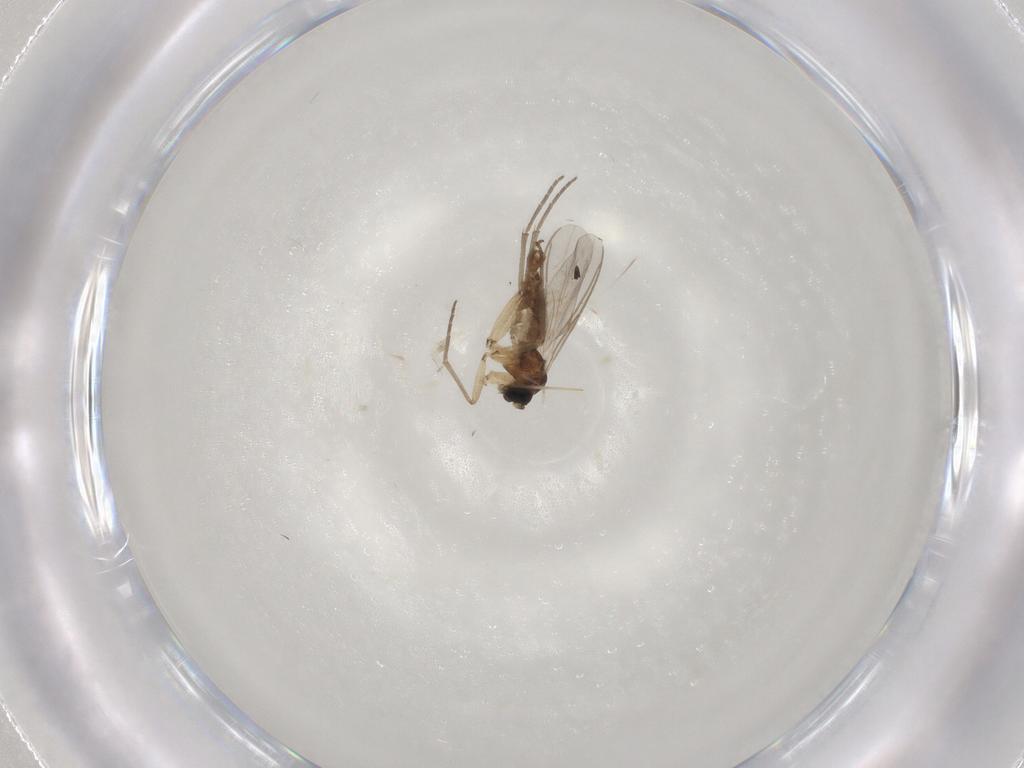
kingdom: Animalia
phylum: Arthropoda
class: Insecta
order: Diptera
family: Sciaridae
